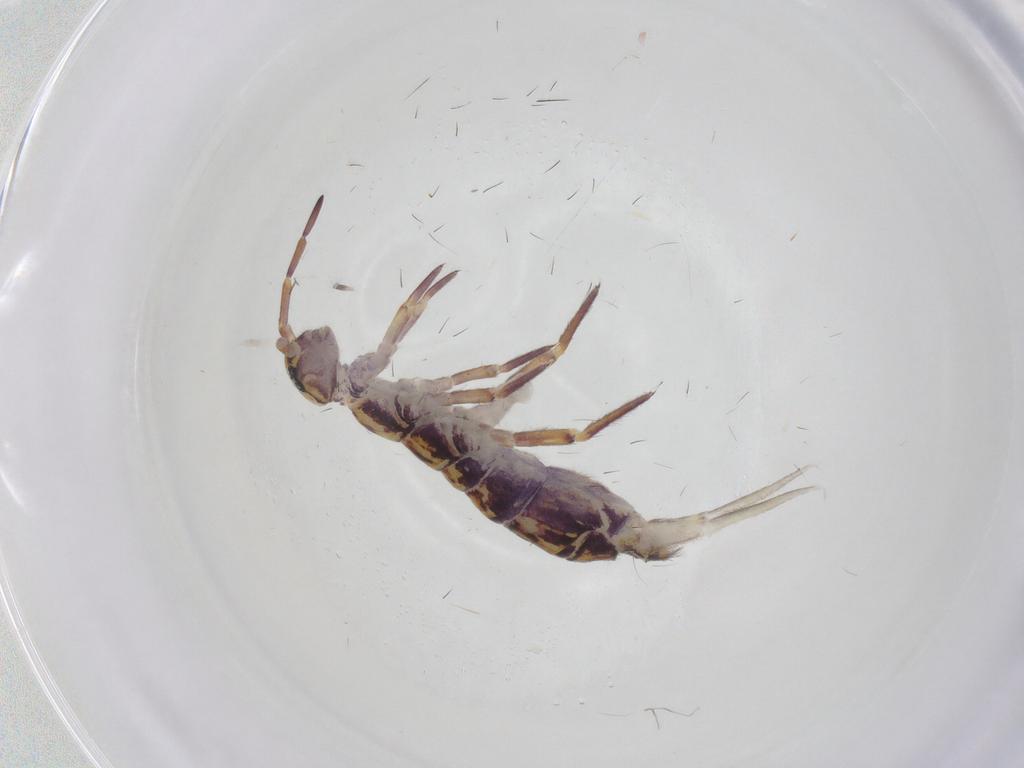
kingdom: Animalia
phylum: Arthropoda
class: Collembola
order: Entomobryomorpha
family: Isotomidae
